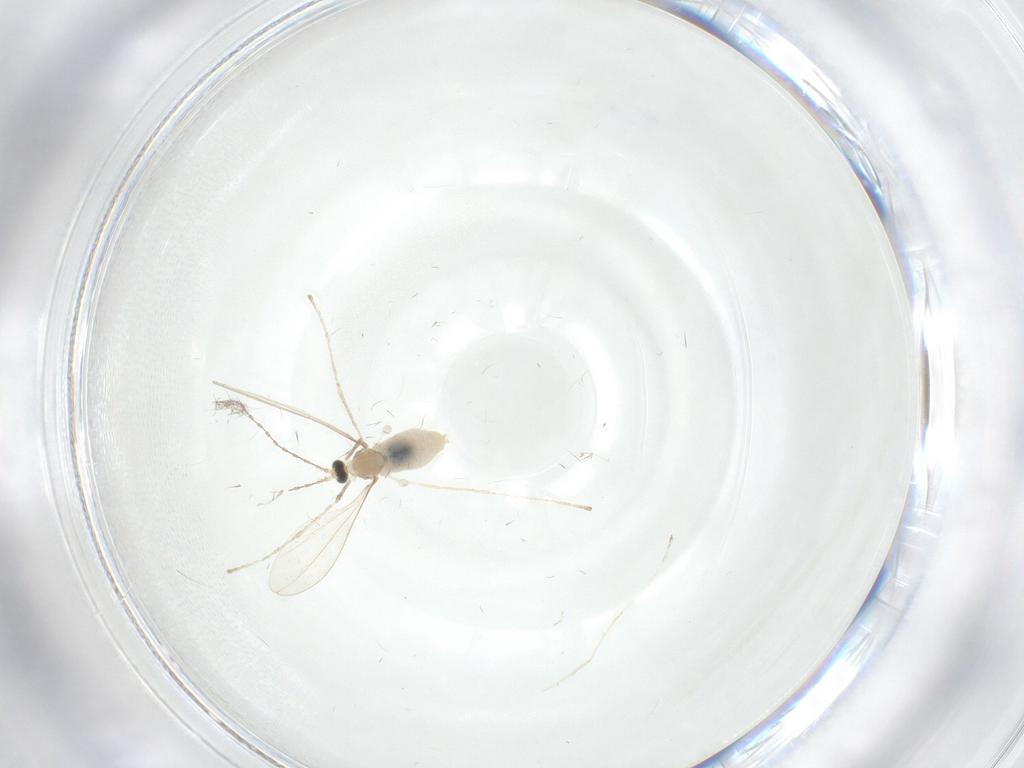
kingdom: Animalia
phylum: Arthropoda
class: Insecta
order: Diptera
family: Cecidomyiidae
